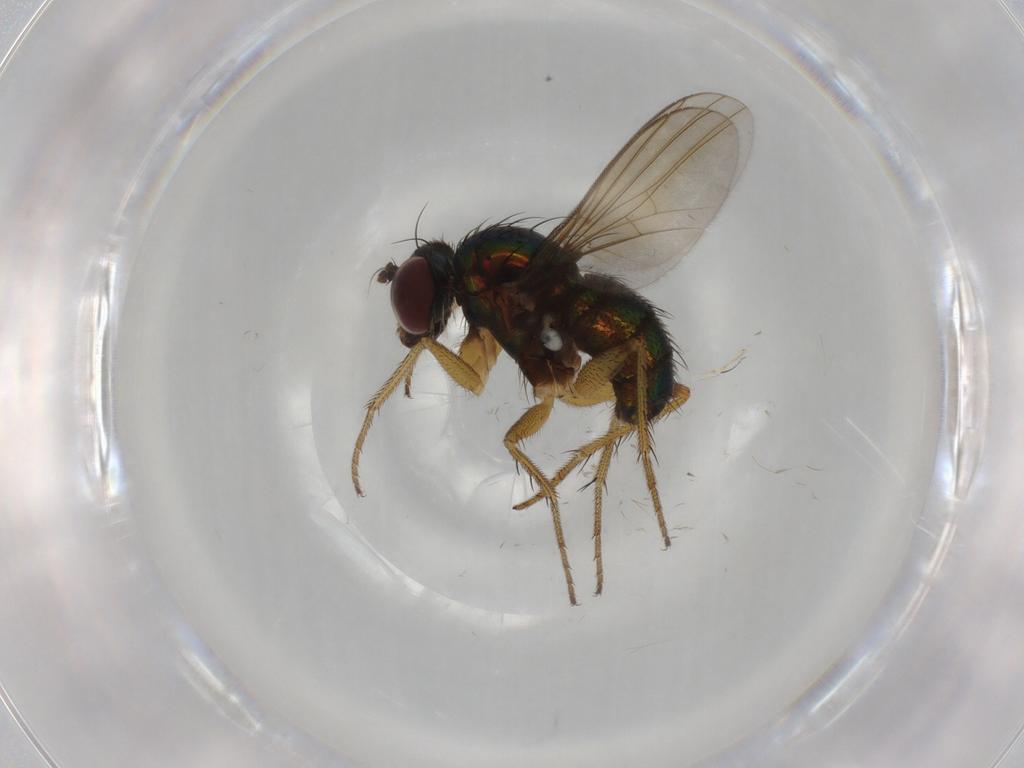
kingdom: Animalia
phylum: Arthropoda
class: Insecta
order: Diptera
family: Dolichopodidae
